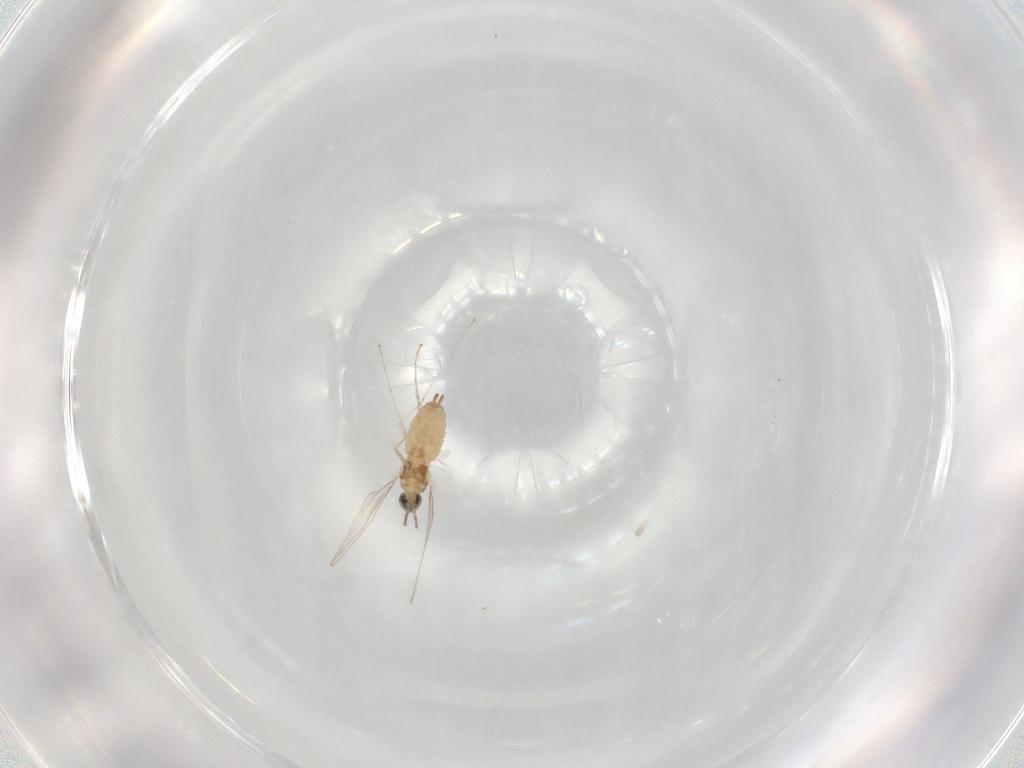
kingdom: Animalia
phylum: Arthropoda
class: Insecta
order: Diptera
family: Cecidomyiidae
